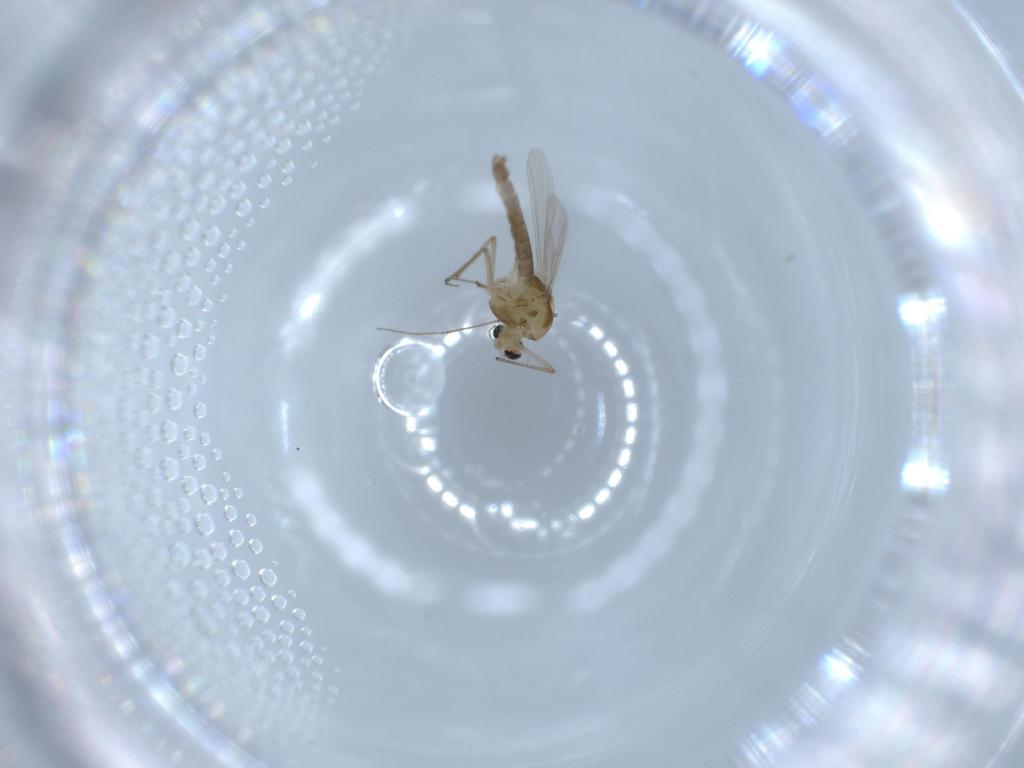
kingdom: Animalia
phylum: Arthropoda
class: Insecta
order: Diptera
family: Chironomidae
